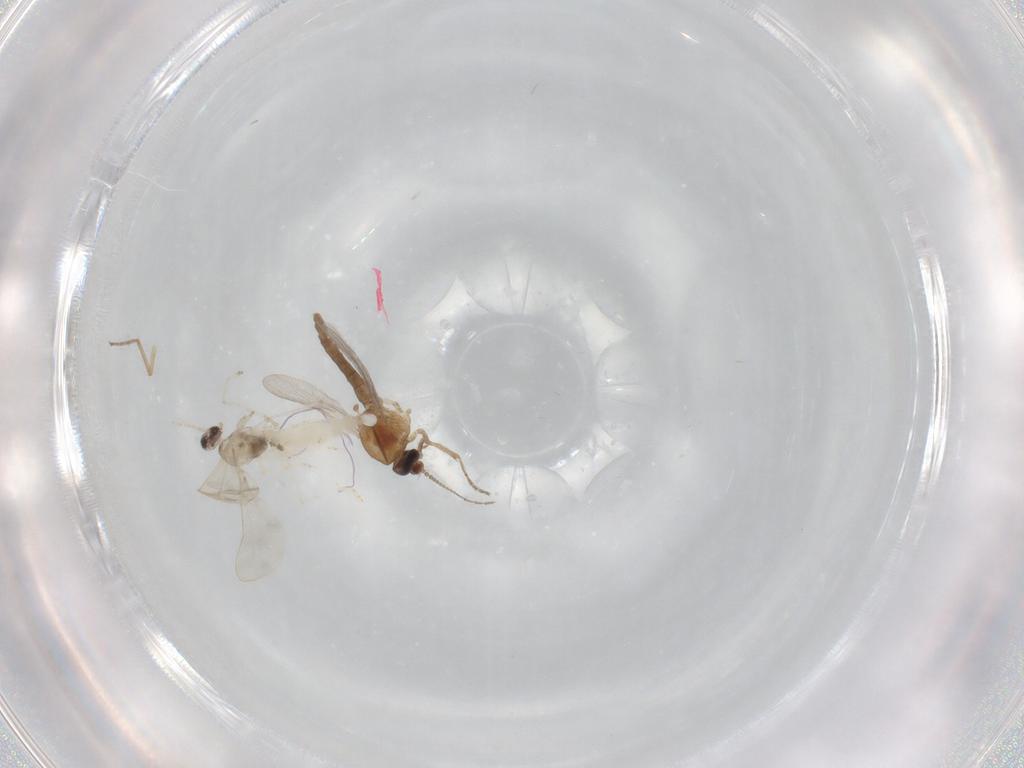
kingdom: Animalia
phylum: Arthropoda
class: Insecta
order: Diptera
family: Ceratopogonidae
